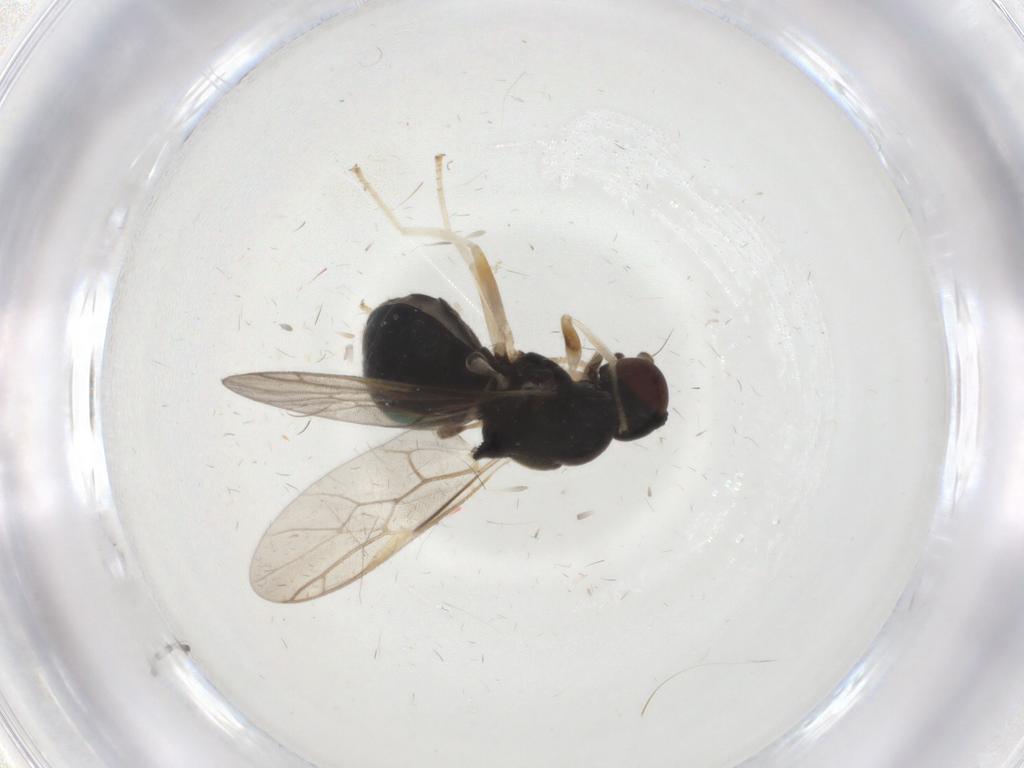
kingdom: Animalia
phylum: Arthropoda
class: Insecta
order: Diptera
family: Stratiomyidae
